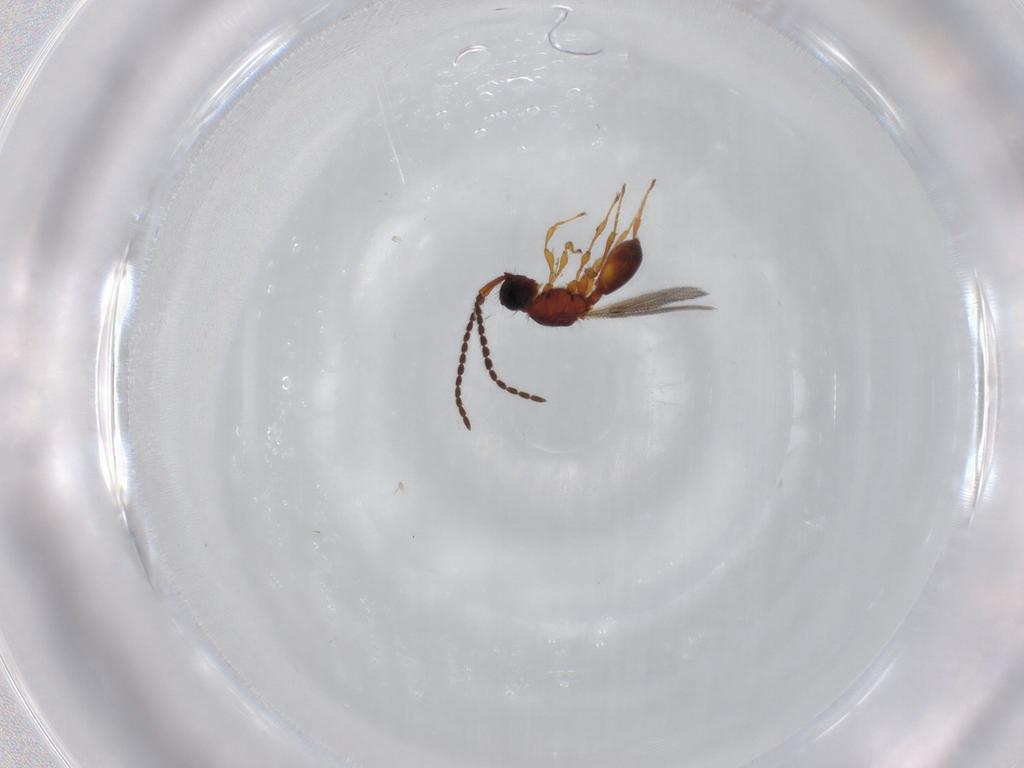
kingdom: Animalia
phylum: Arthropoda
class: Insecta
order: Hymenoptera
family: Diapriidae
